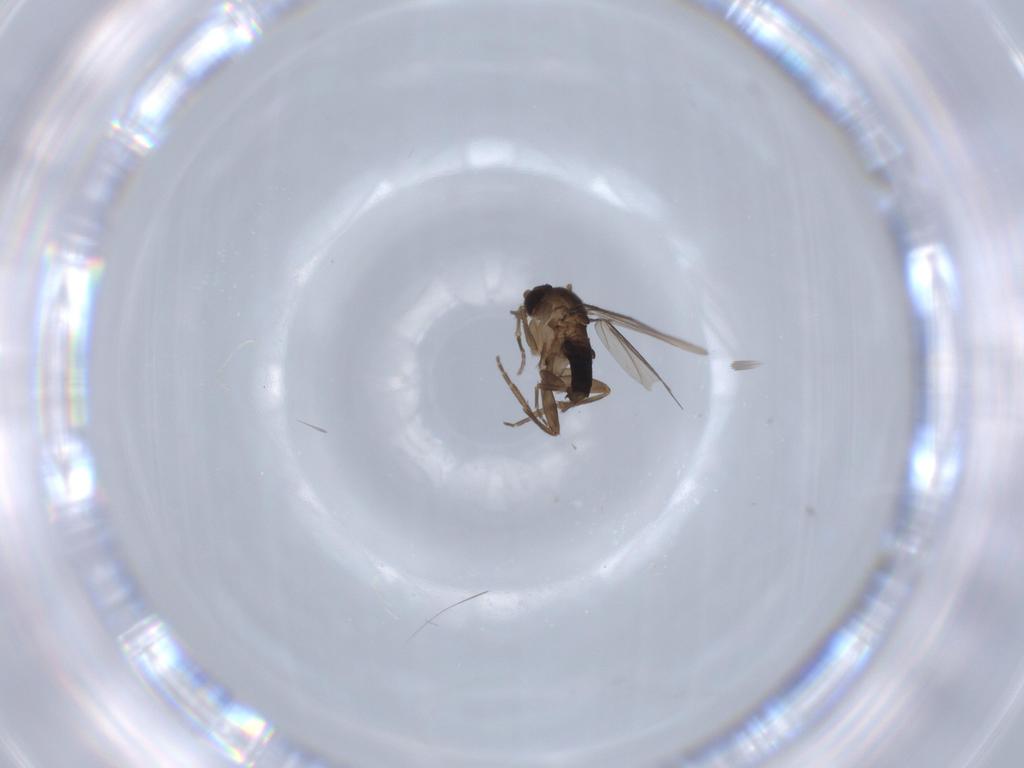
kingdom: Animalia
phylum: Arthropoda
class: Insecta
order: Diptera
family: Phoridae
